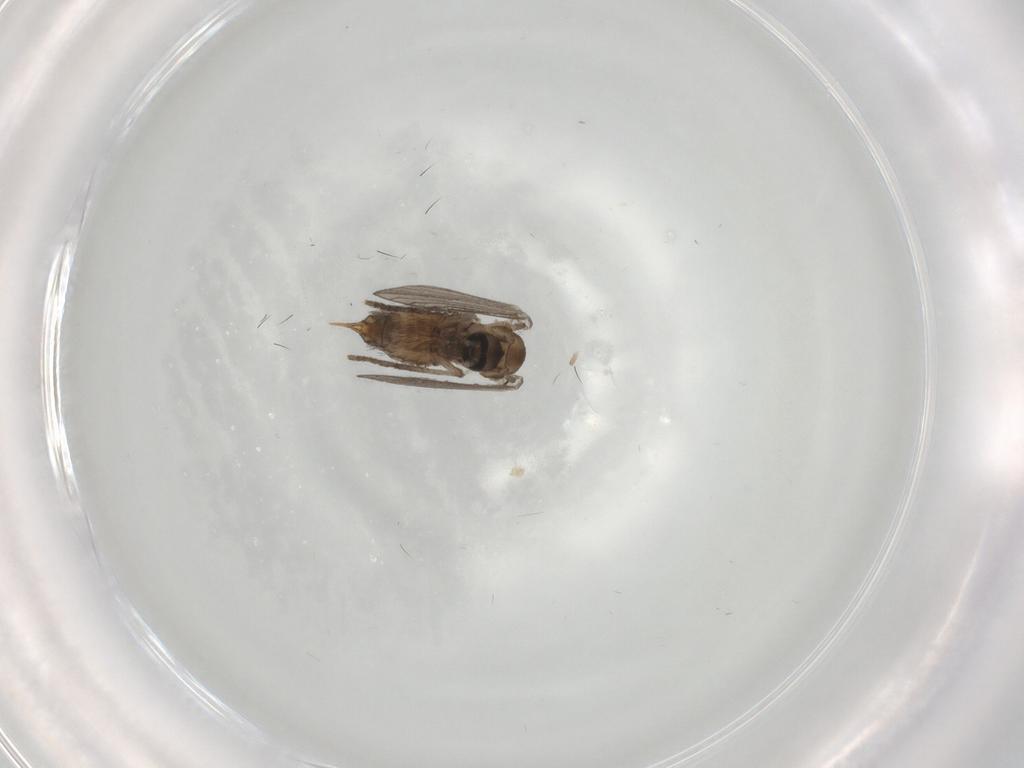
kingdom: Animalia
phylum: Arthropoda
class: Insecta
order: Diptera
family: Psychodidae
